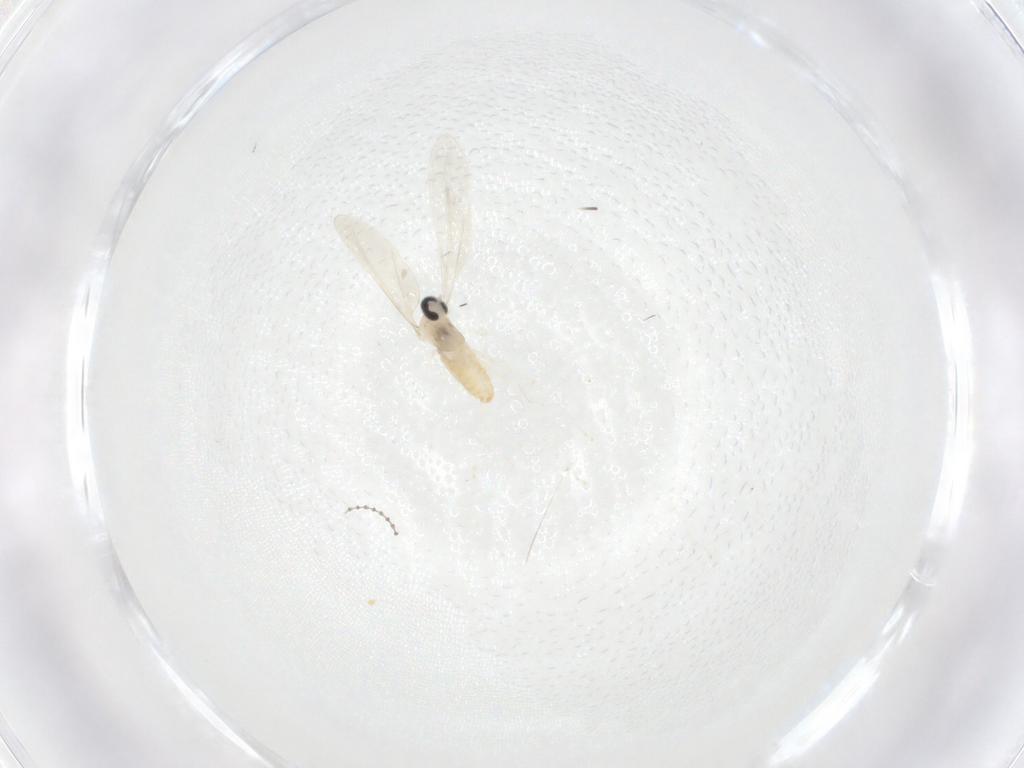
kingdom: Animalia
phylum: Arthropoda
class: Insecta
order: Diptera
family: Cecidomyiidae
